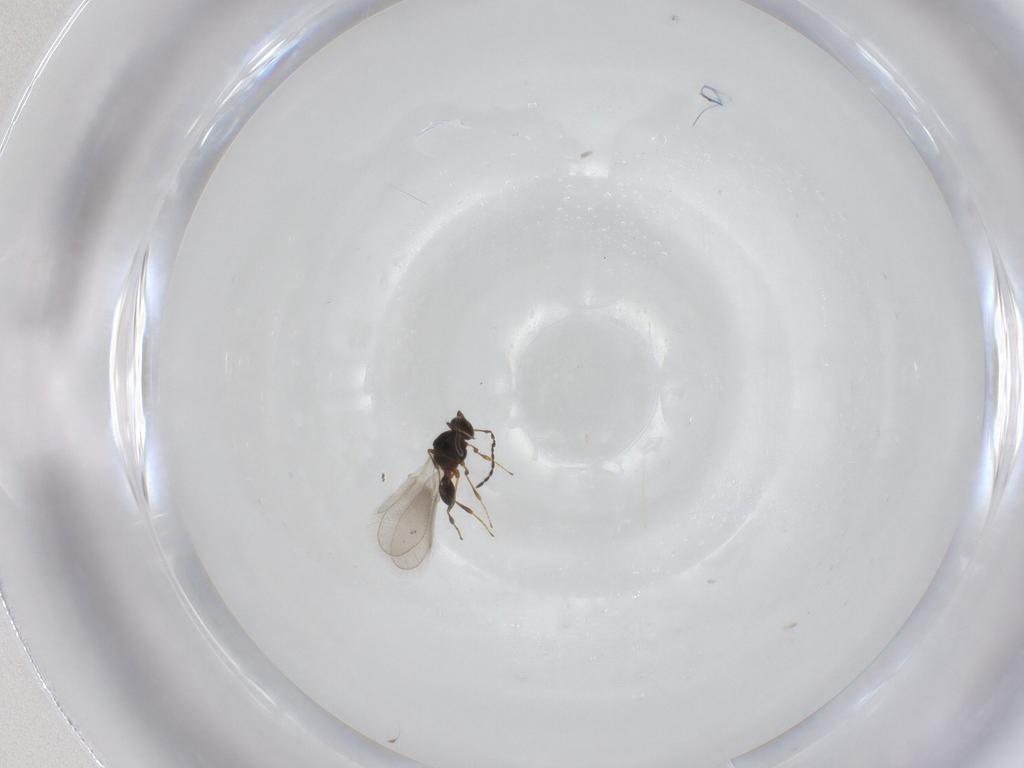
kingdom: Animalia
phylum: Arthropoda
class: Insecta
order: Hymenoptera
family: Platygastridae
